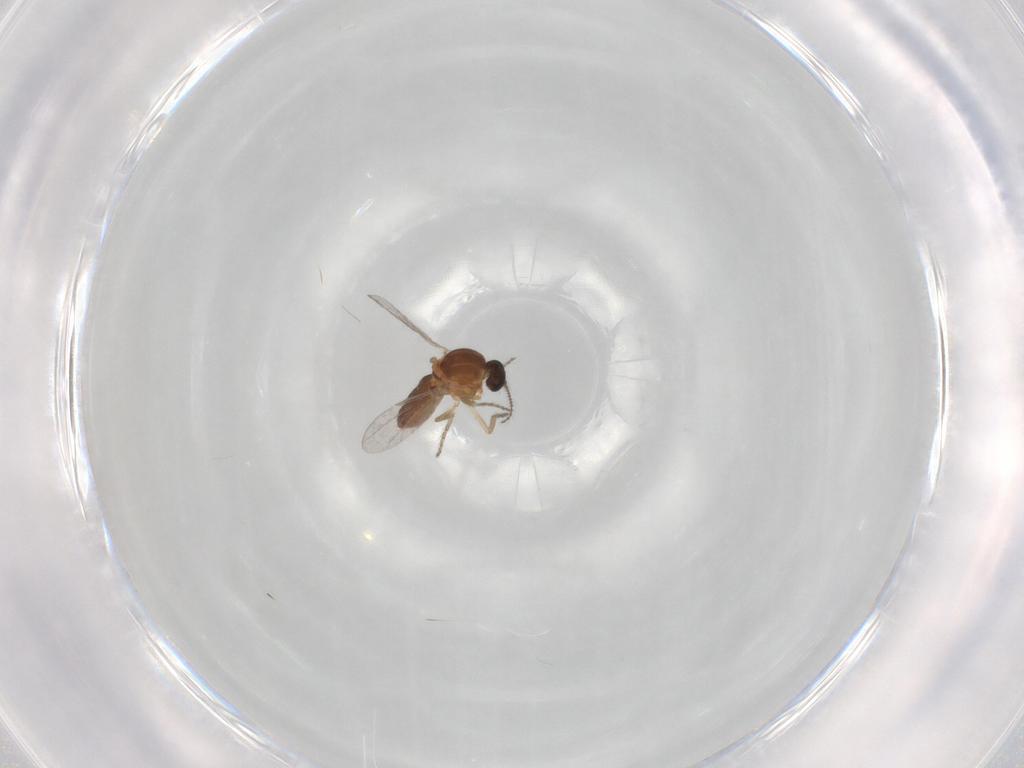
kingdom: Animalia
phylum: Arthropoda
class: Insecta
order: Diptera
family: Ceratopogonidae
